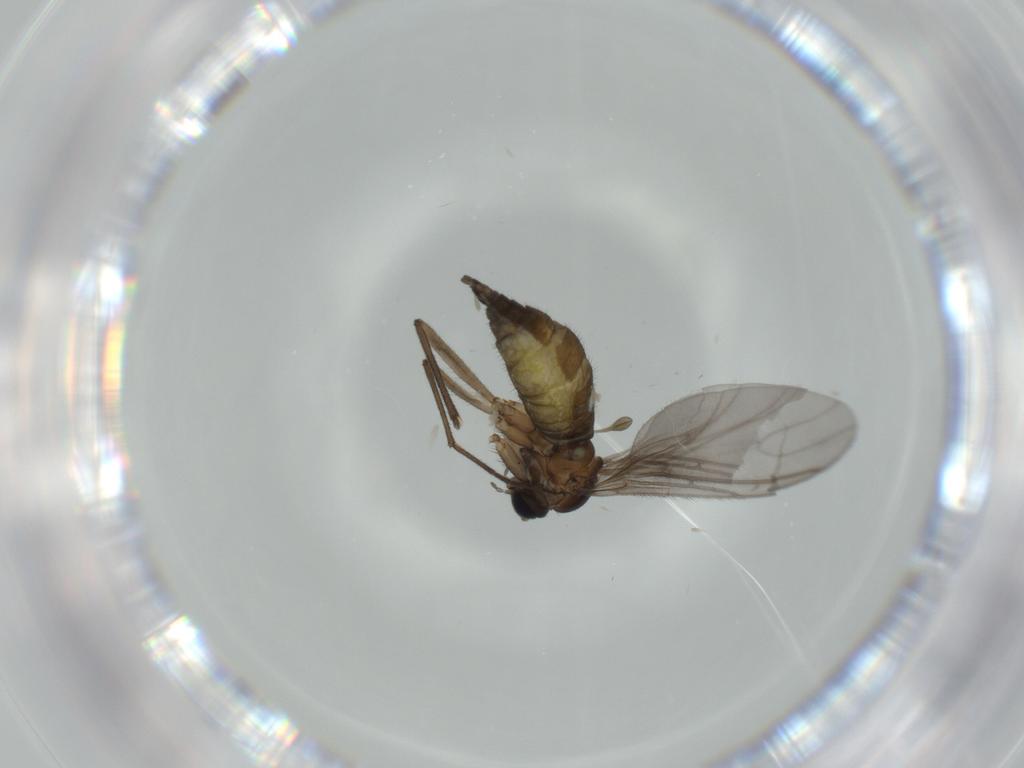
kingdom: Animalia
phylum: Arthropoda
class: Insecta
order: Diptera
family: Sciaridae
